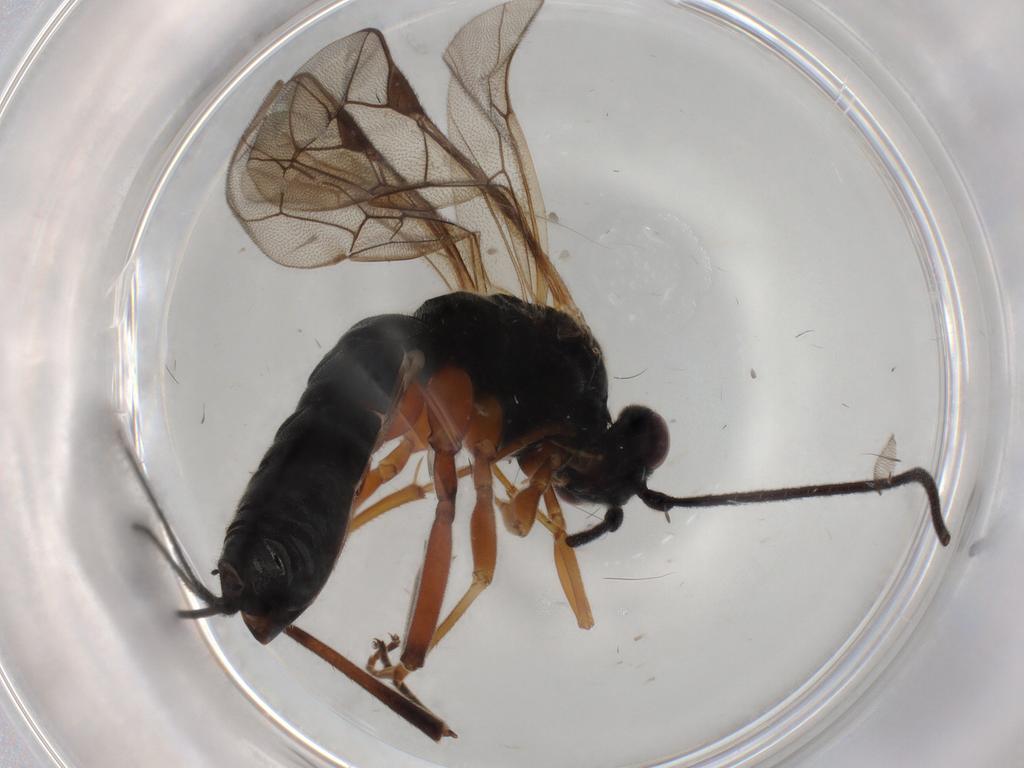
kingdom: Animalia
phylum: Arthropoda
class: Insecta
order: Hymenoptera
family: Ichneumonidae
